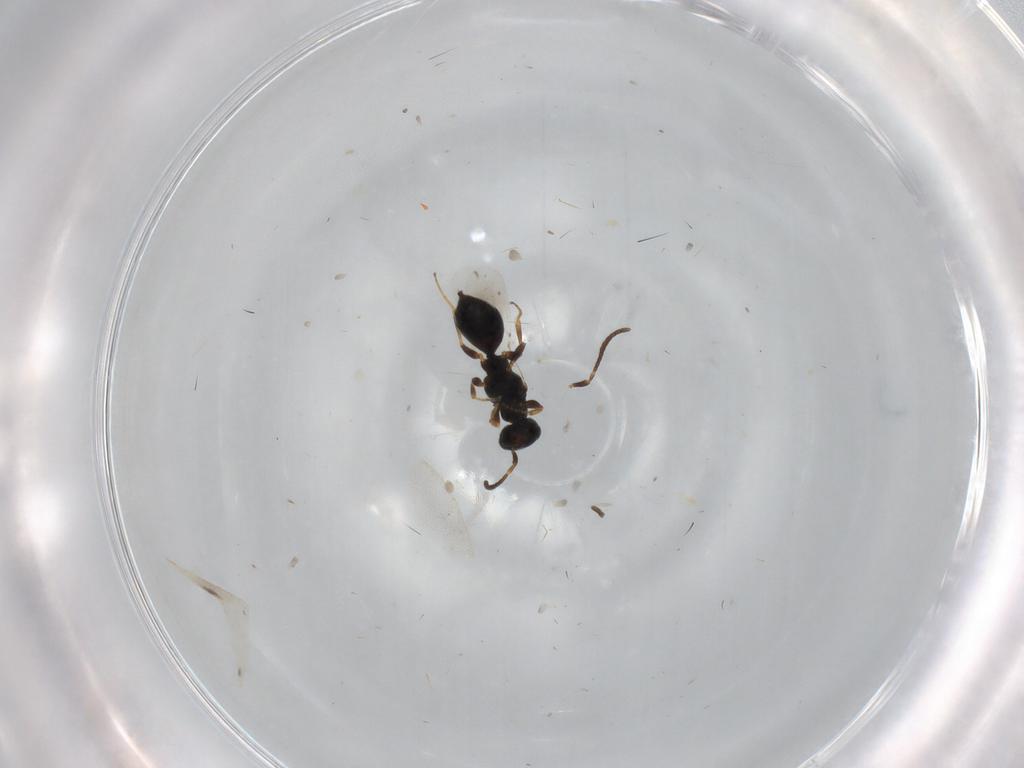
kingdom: Animalia
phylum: Arthropoda
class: Insecta
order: Hymenoptera
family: Bethylidae
